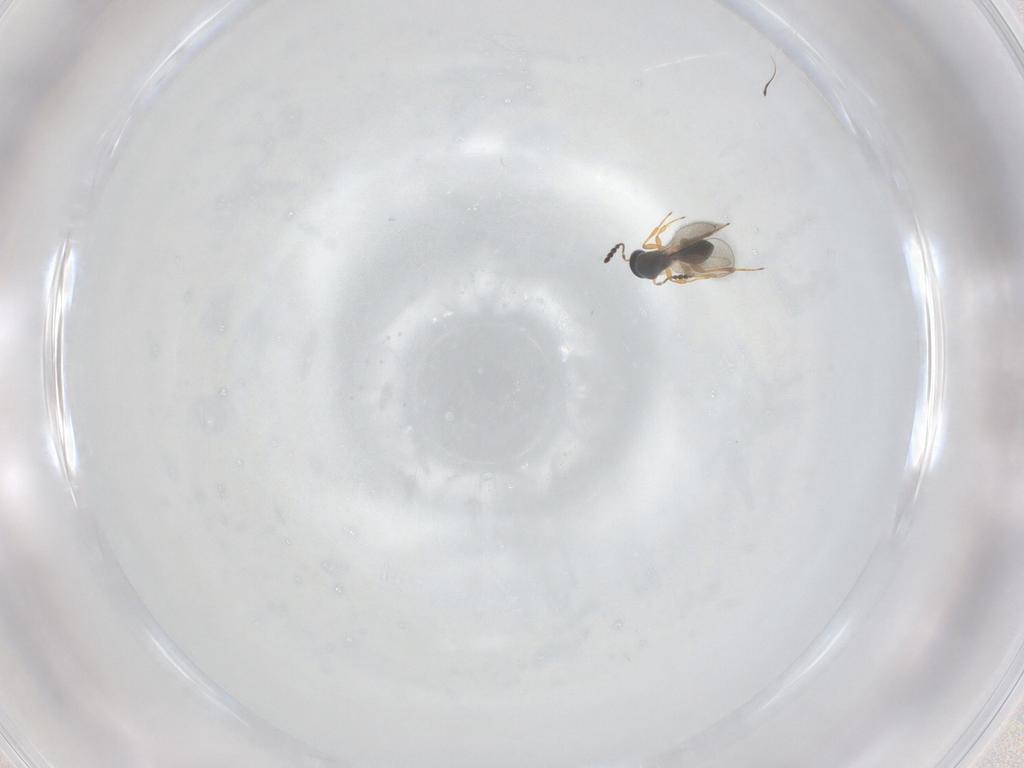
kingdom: Animalia
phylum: Arthropoda
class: Insecta
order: Hymenoptera
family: Platygastridae
